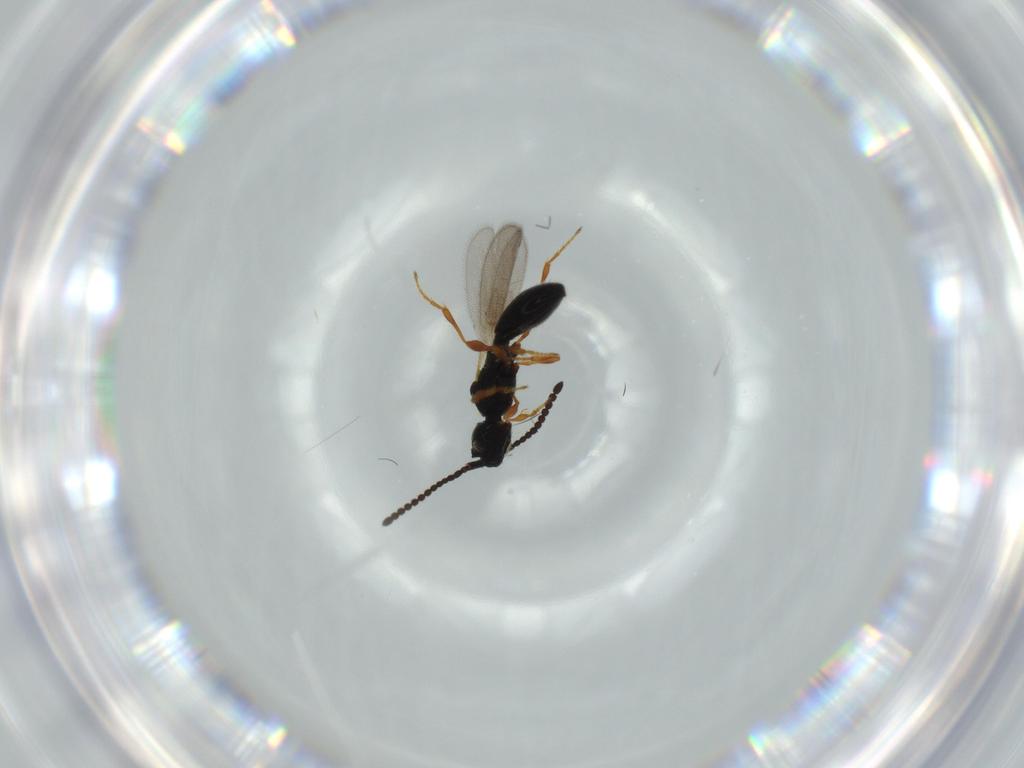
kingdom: Animalia
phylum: Arthropoda
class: Insecta
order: Hymenoptera
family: Diapriidae
